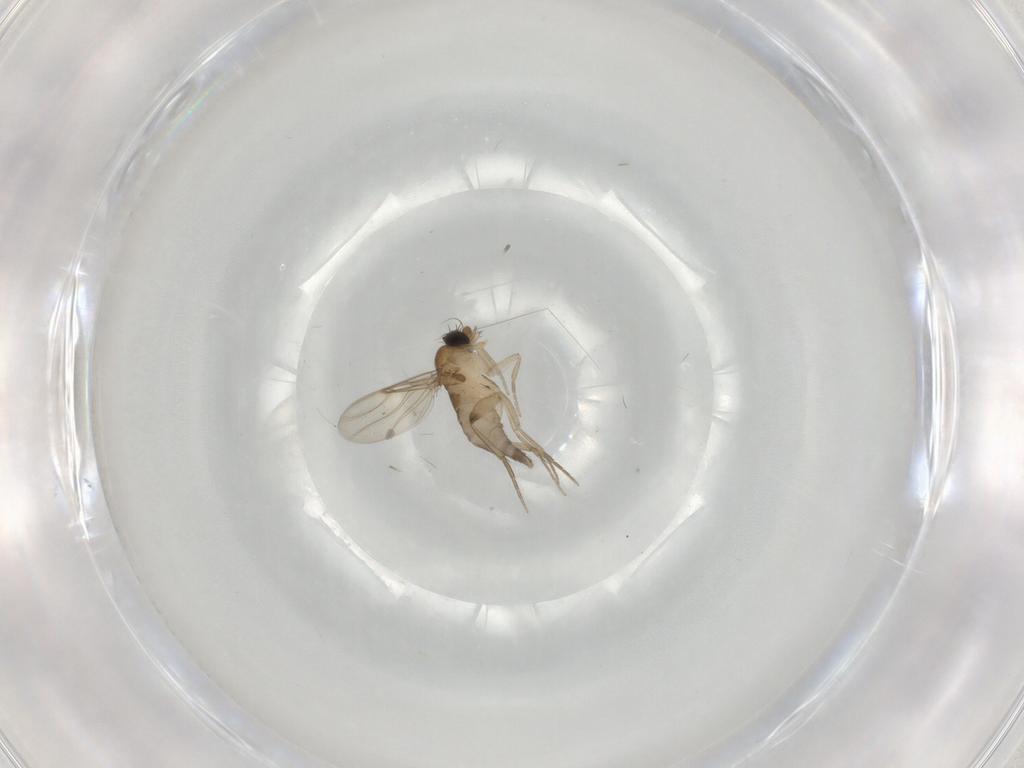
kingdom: Animalia
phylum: Arthropoda
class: Insecta
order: Diptera
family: Phoridae
